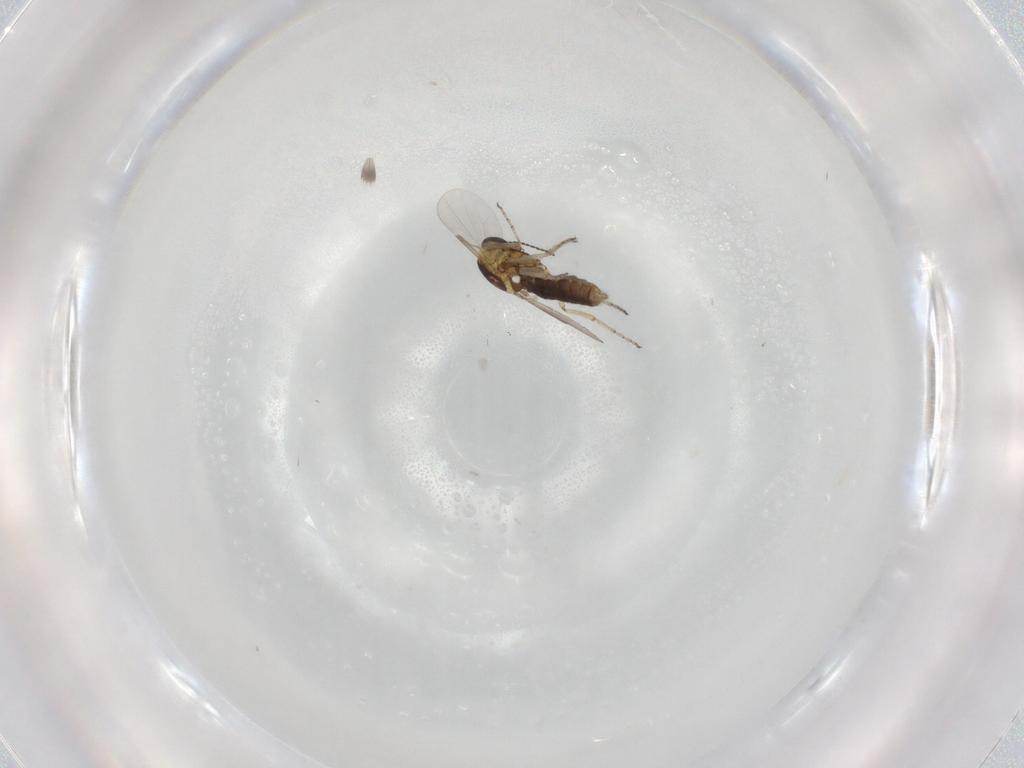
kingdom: Animalia
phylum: Arthropoda
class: Insecta
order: Diptera
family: Ceratopogonidae
